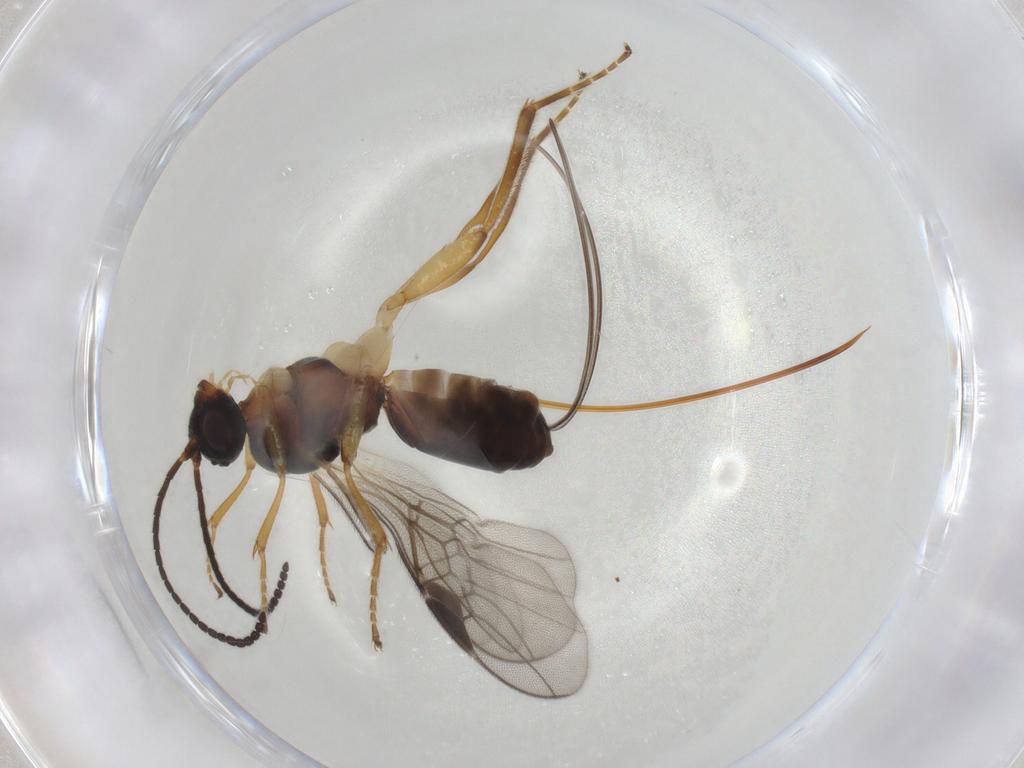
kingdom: Animalia
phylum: Arthropoda
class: Insecta
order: Hymenoptera
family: Braconidae
